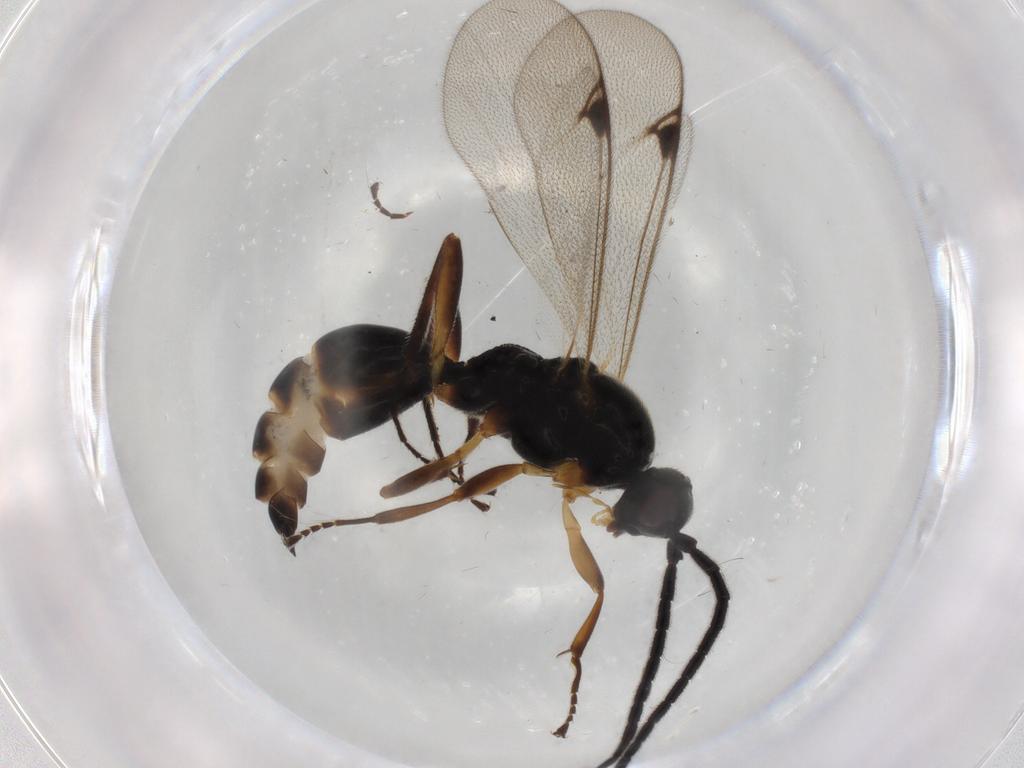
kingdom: Animalia
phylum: Arthropoda
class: Insecta
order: Hymenoptera
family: Proctotrupidae
